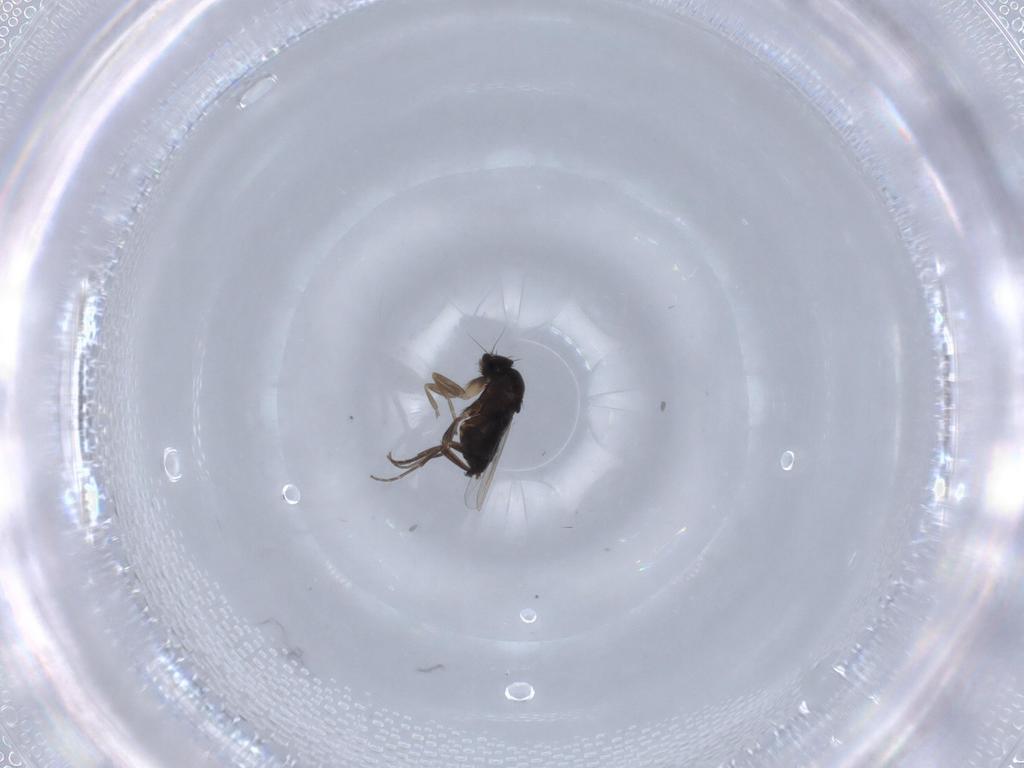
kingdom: Animalia
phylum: Arthropoda
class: Insecta
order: Diptera
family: Phoridae
